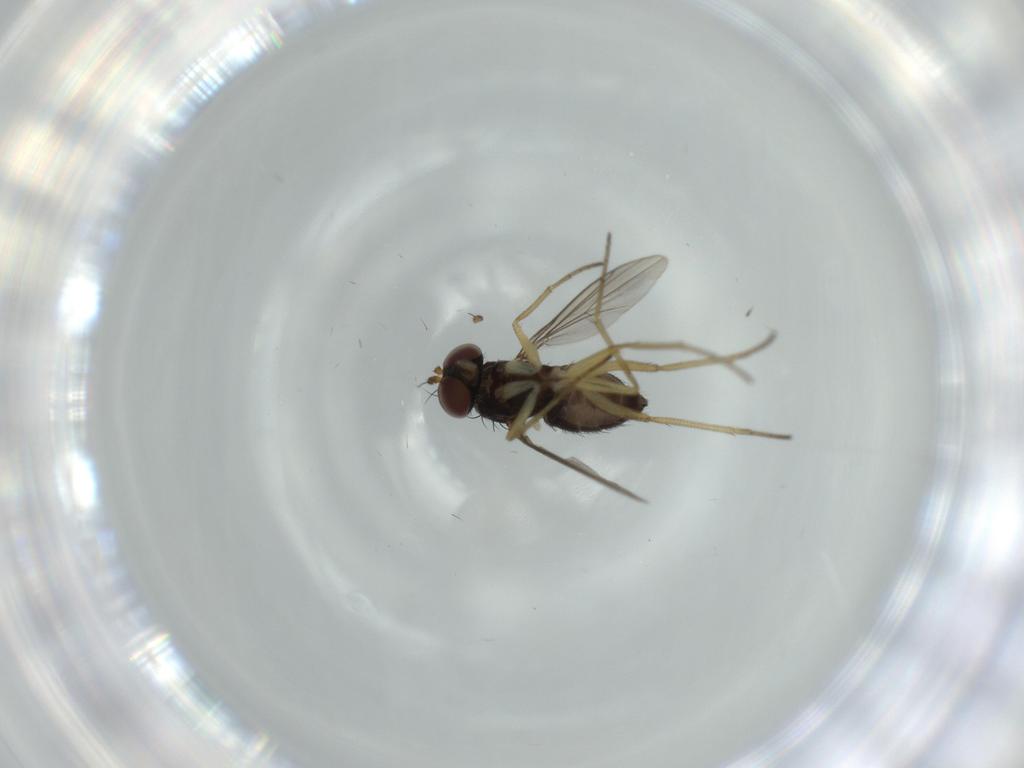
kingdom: Animalia
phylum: Arthropoda
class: Insecta
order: Diptera
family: Dolichopodidae
